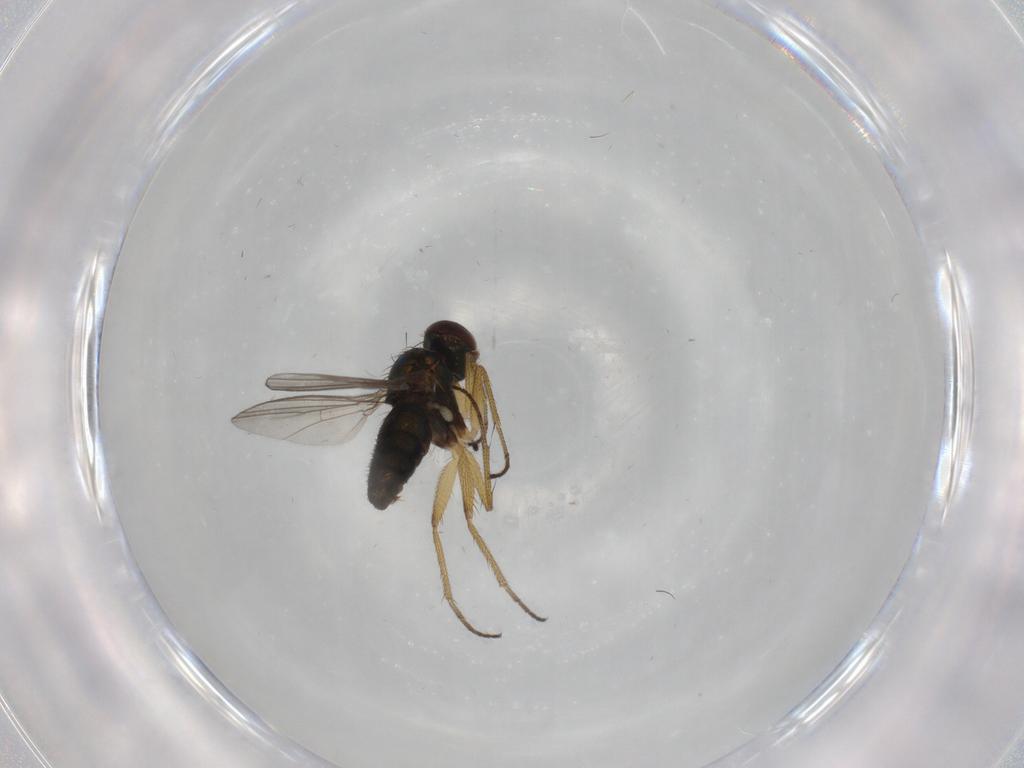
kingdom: Animalia
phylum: Arthropoda
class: Insecta
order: Diptera
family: Dolichopodidae
